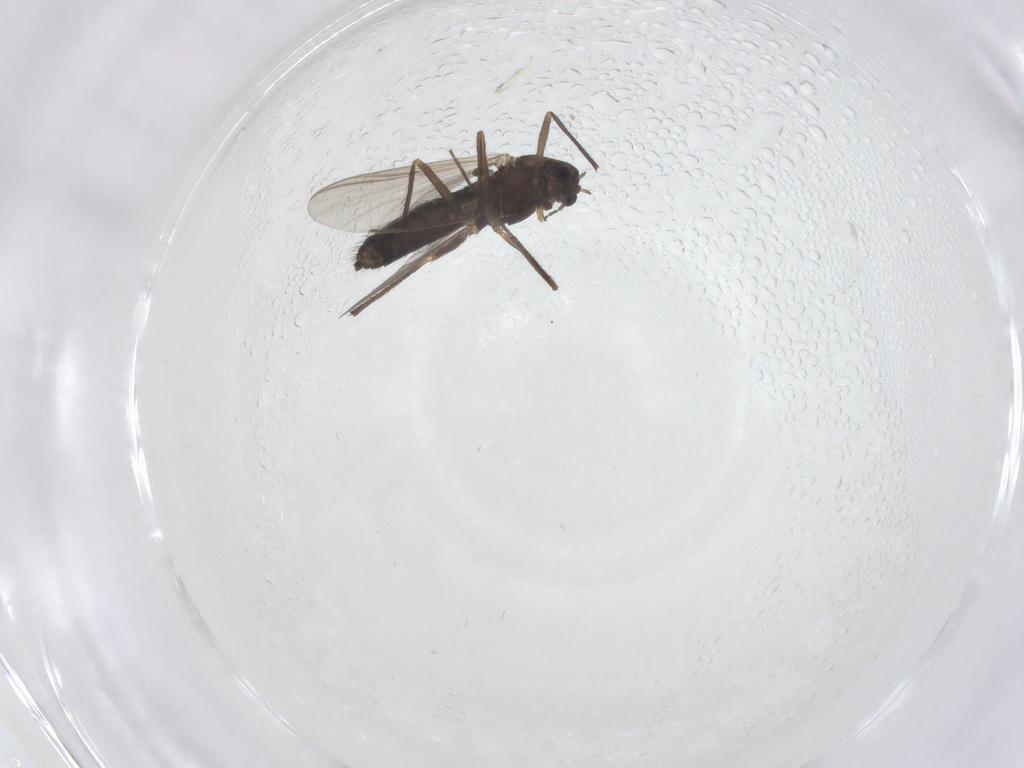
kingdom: Animalia
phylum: Arthropoda
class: Insecta
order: Diptera
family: Chironomidae
